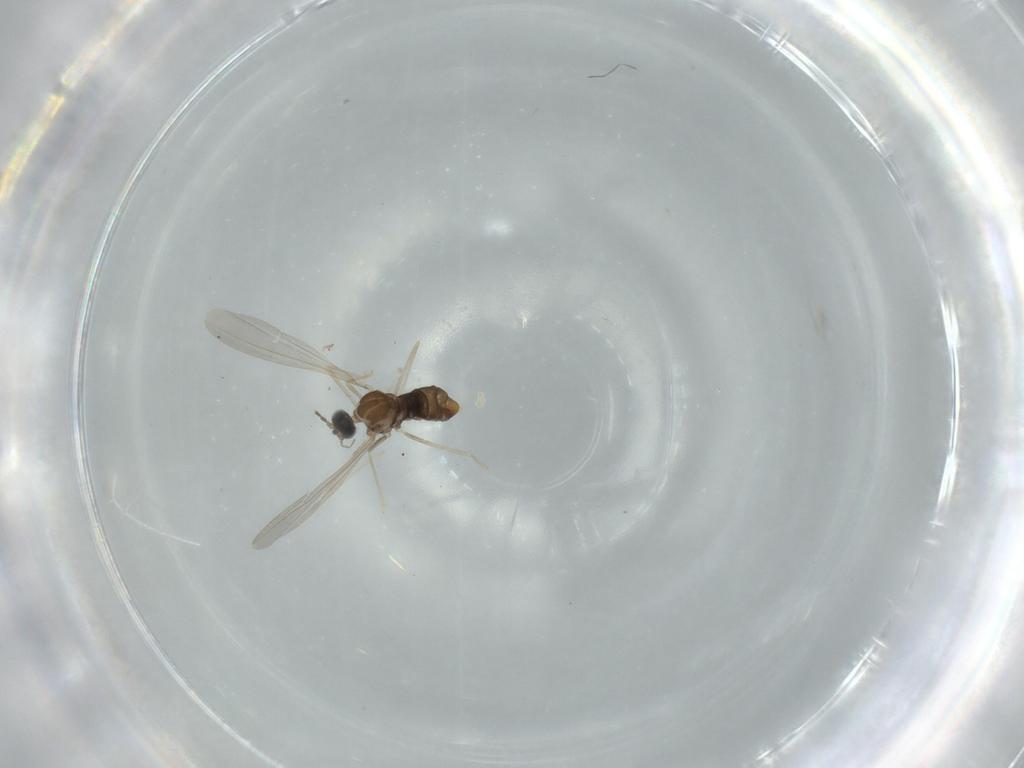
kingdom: Animalia
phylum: Arthropoda
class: Insecta
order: Diptera
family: Cecidomyiidae
